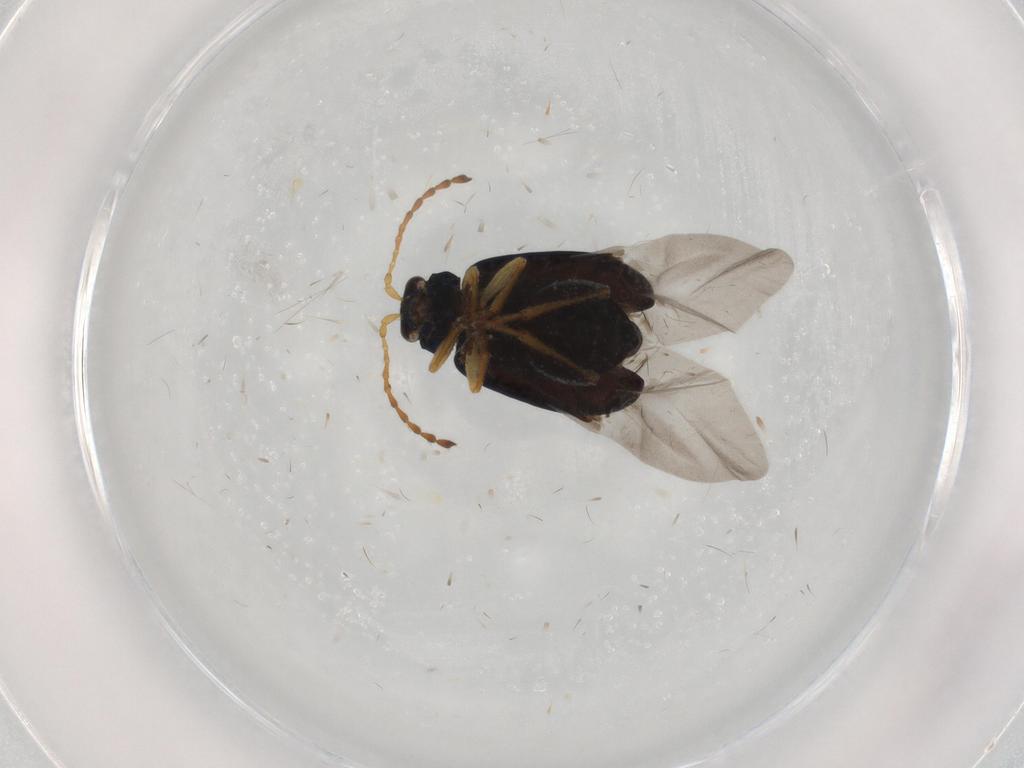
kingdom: Animalia
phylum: Arthropoda
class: Insecta
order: Coleoptera
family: Chrysomelidae
